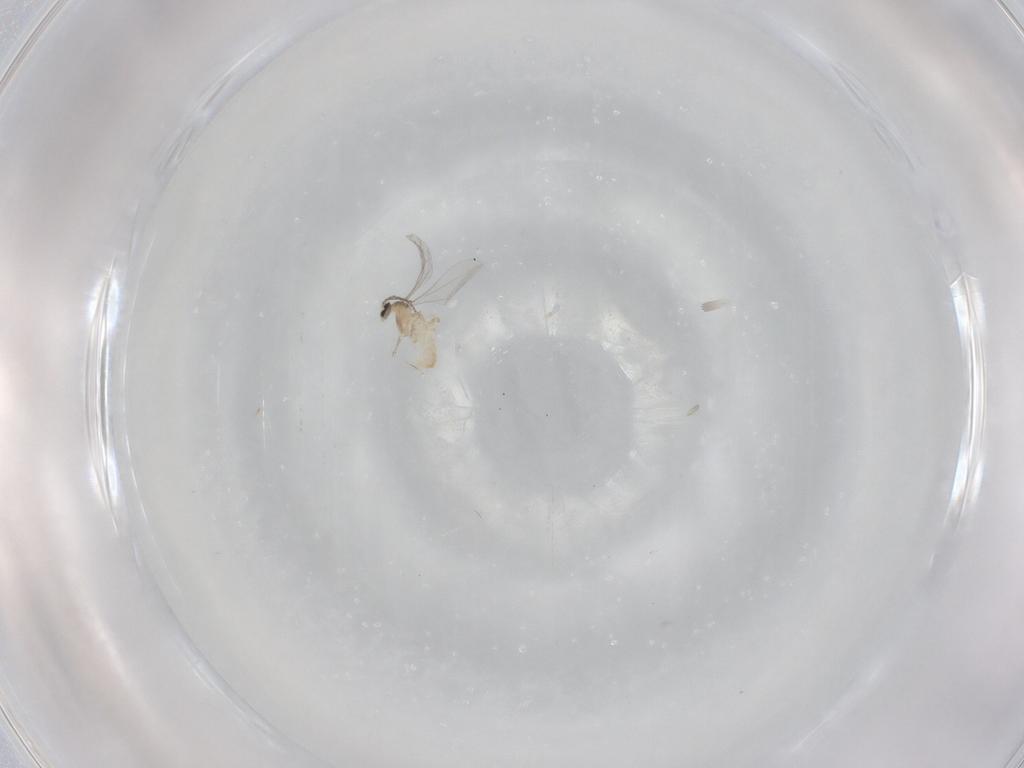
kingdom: Animalia
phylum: Arthropoda
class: Insecta
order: Diptera
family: Cecidomyiidae
